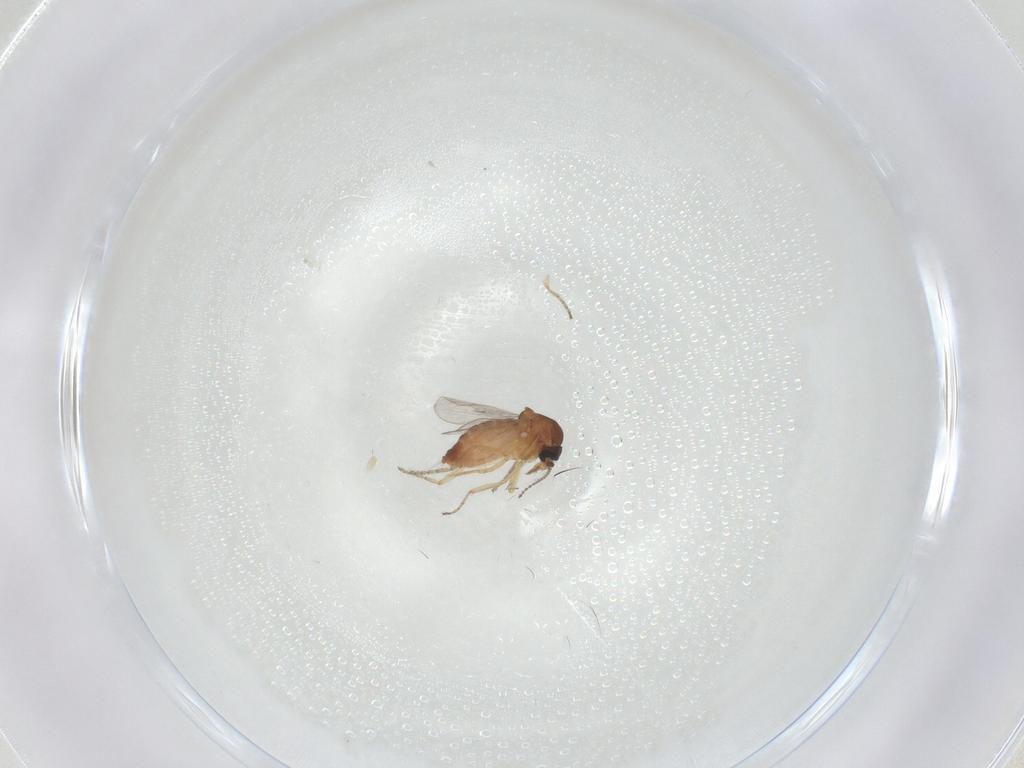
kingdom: Animalia
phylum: Arthropoda
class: Insecta
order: Diptera
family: Ceratopogonidae
